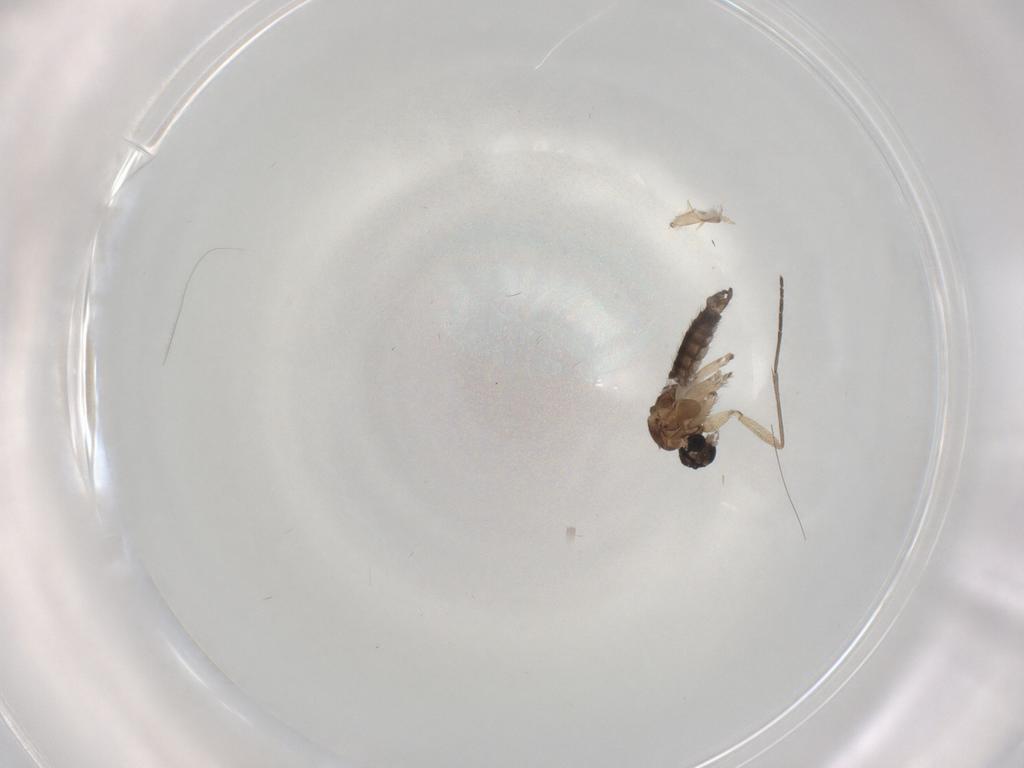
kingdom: Animalia
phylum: Arthropoda
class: Insecta
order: Diptera
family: Sciaridae
